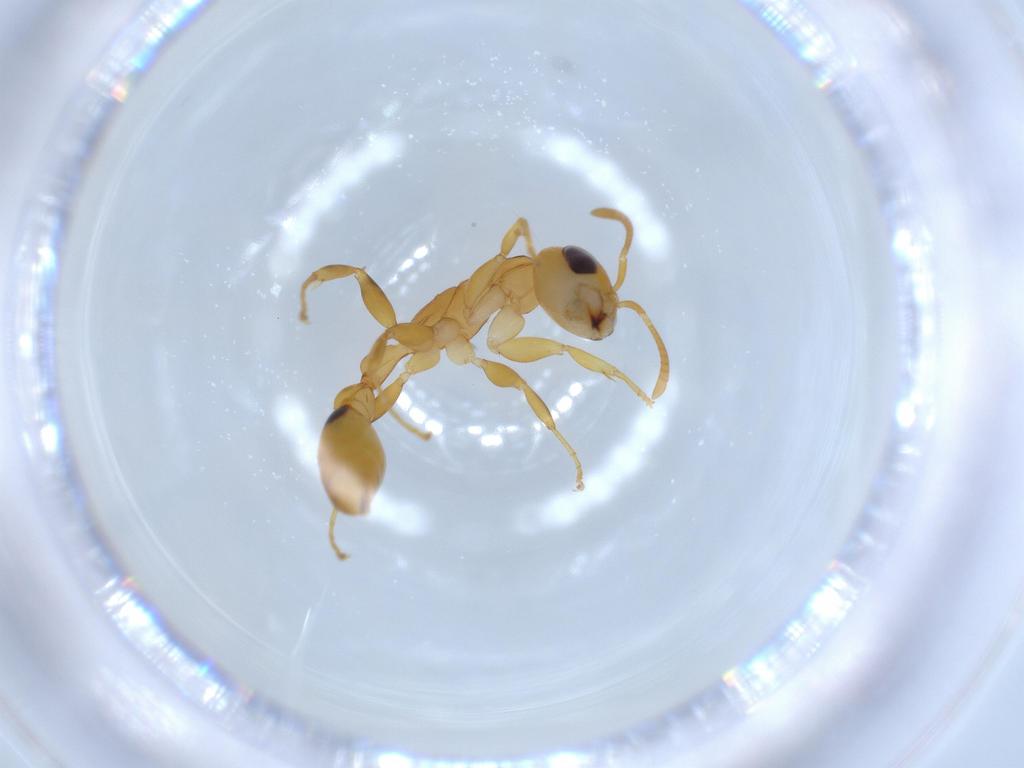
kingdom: Animalia
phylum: Arthropoda
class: Insecta
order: Hymenoptera
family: Formicidae
